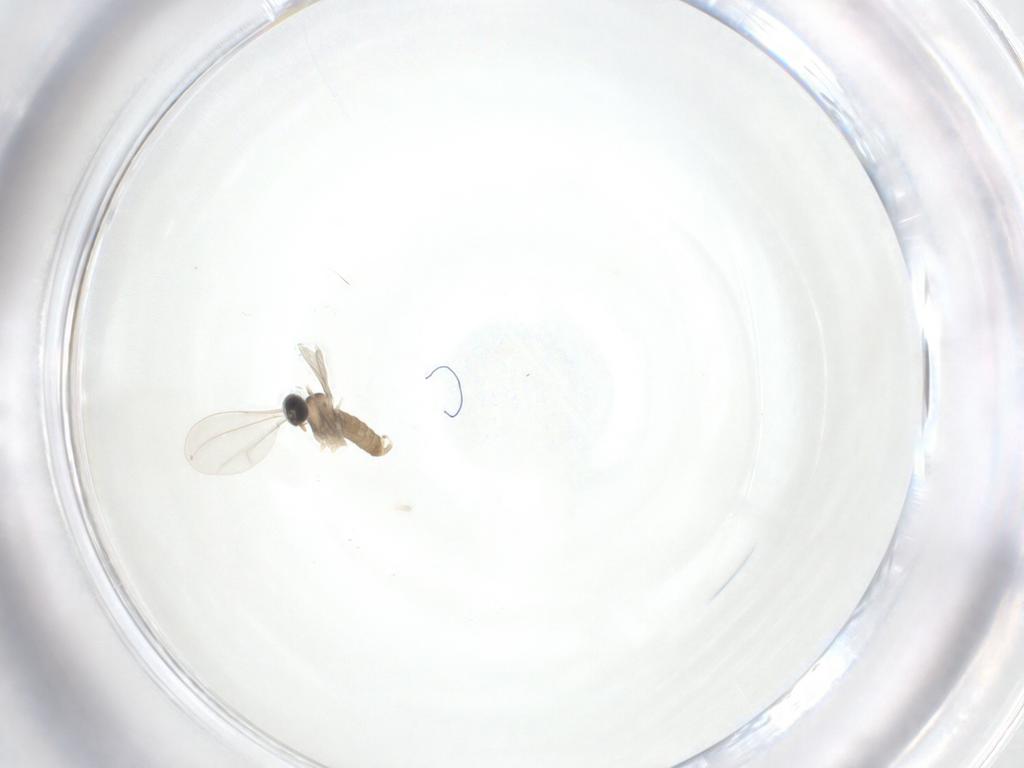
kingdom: Animalia
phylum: Arthropoda
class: Insecta
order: Diptera
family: Cecidomyiidae
